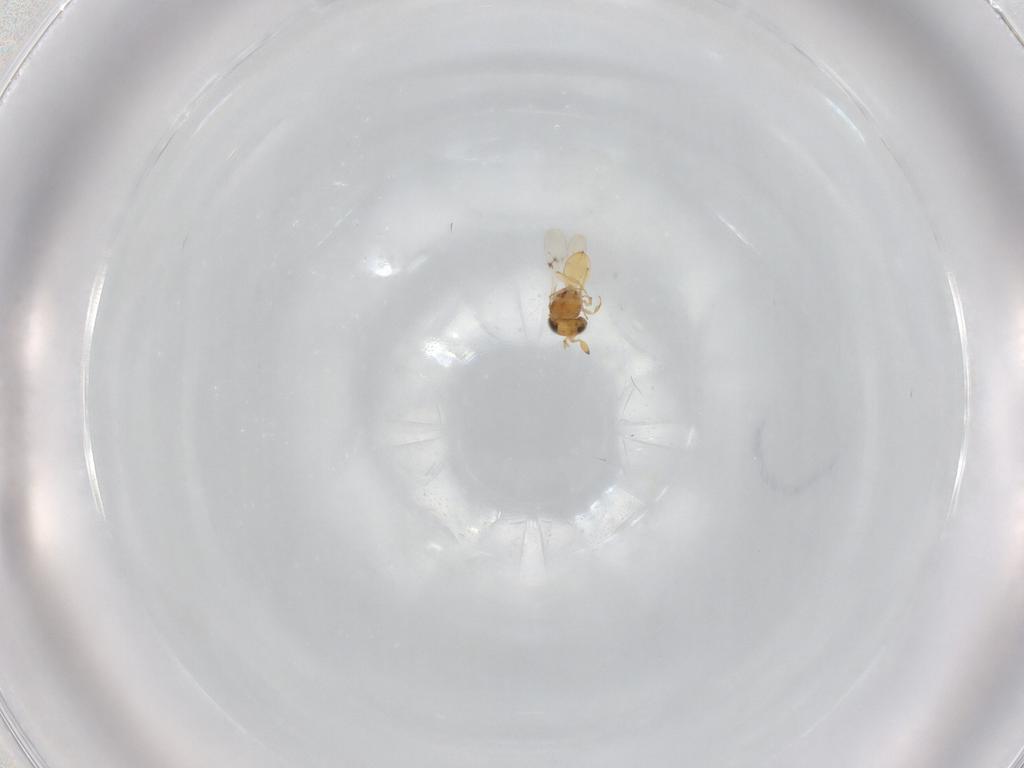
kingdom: Animalia
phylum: Arthropoda
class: Insecta
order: Hymenoptera
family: Scelionidae
